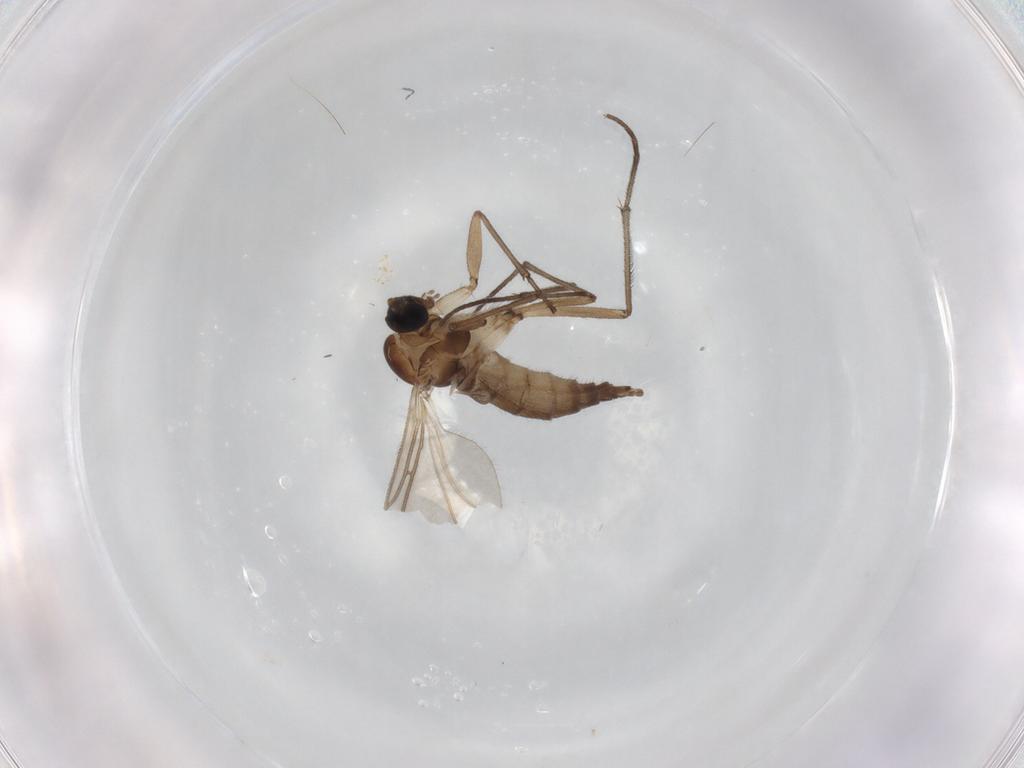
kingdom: Animalia
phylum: Arthropoda
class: Insecta
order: Diptera
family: Sciaridae
